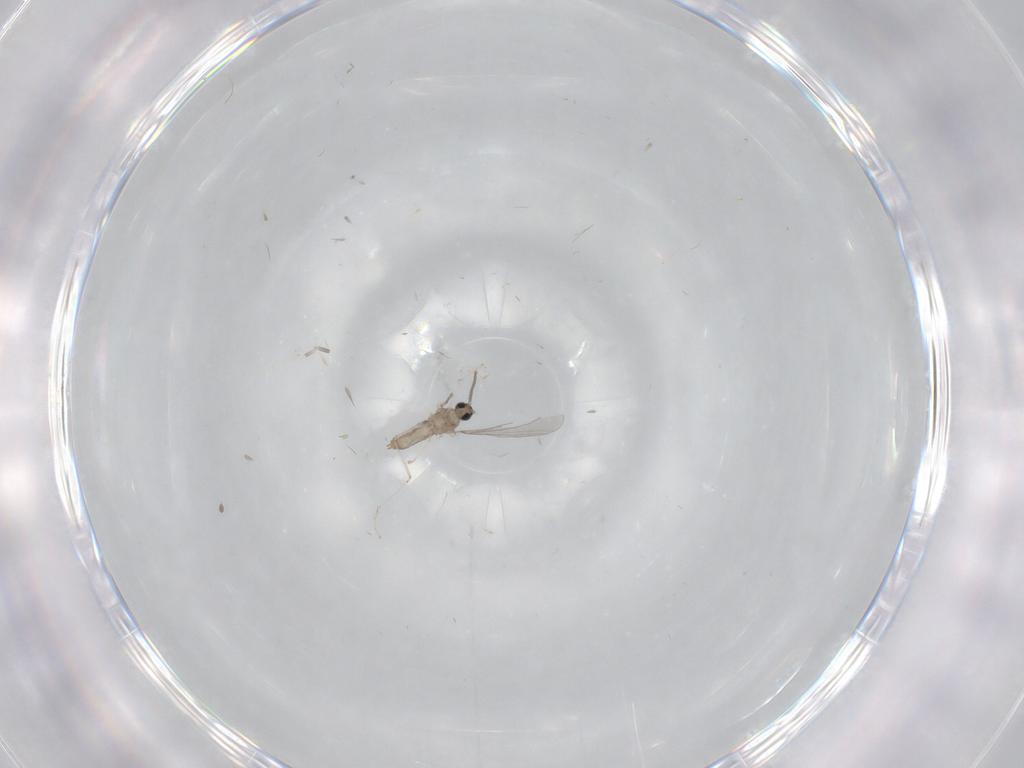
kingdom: Animalia
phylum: Arthropoda
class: Insecta
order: Diptera
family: Cecidomyiidae
